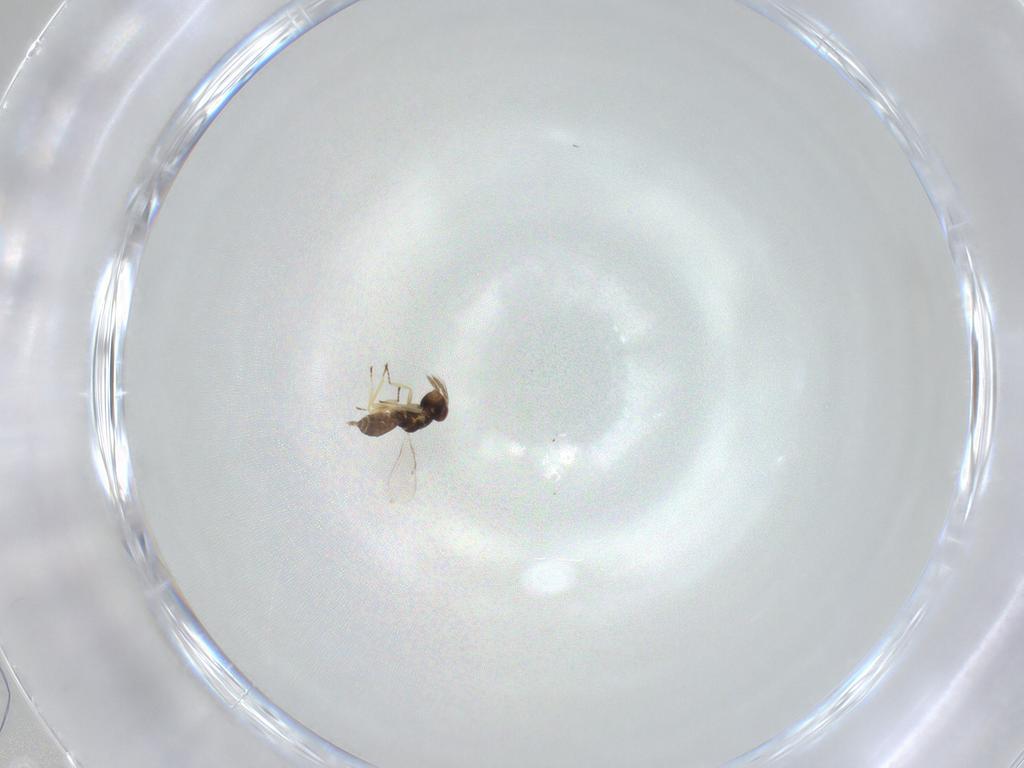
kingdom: Animalia
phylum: Arthropoda
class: Insecta
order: Hymenoptera
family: Eulophidae
